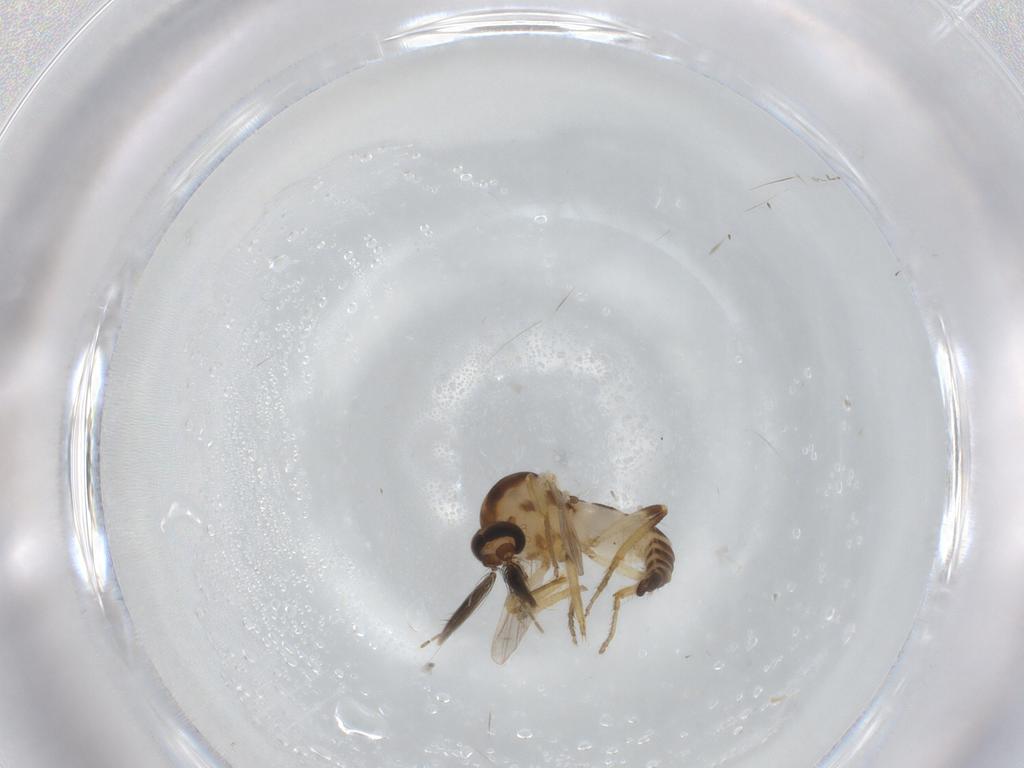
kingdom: Animalia
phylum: Arthropoda
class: Insecta
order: Diptera
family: Ceratopogonidae
